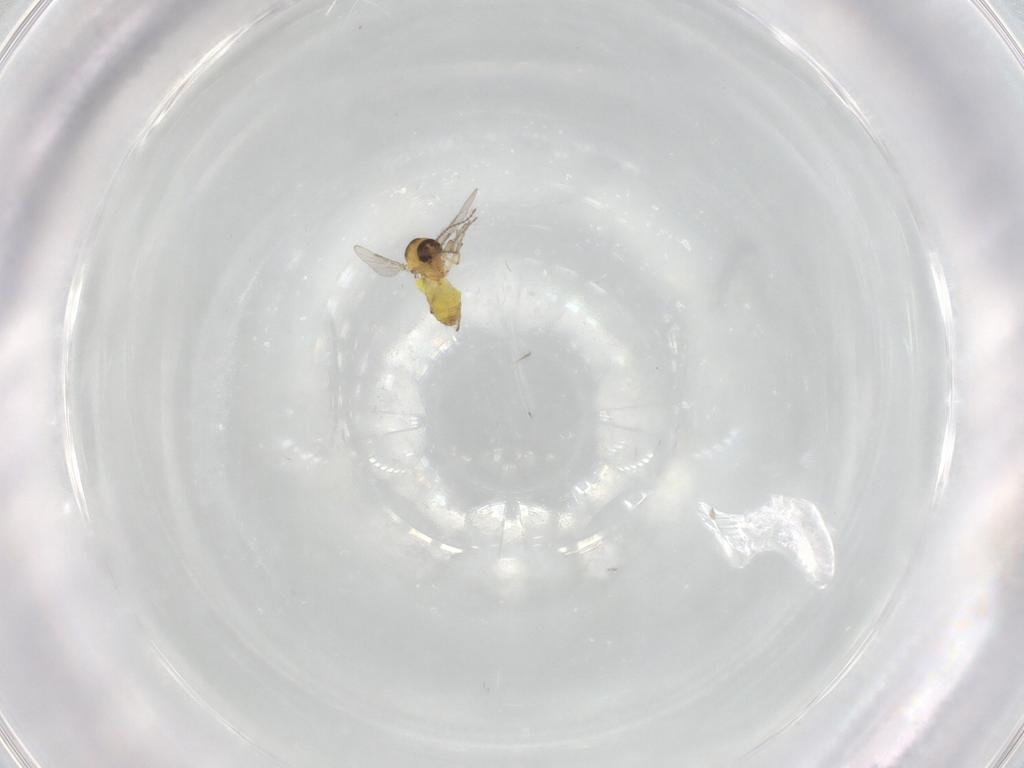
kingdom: Animalia
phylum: Arthropoda
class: Insecta
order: Diptera
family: Ceratopogonidae
